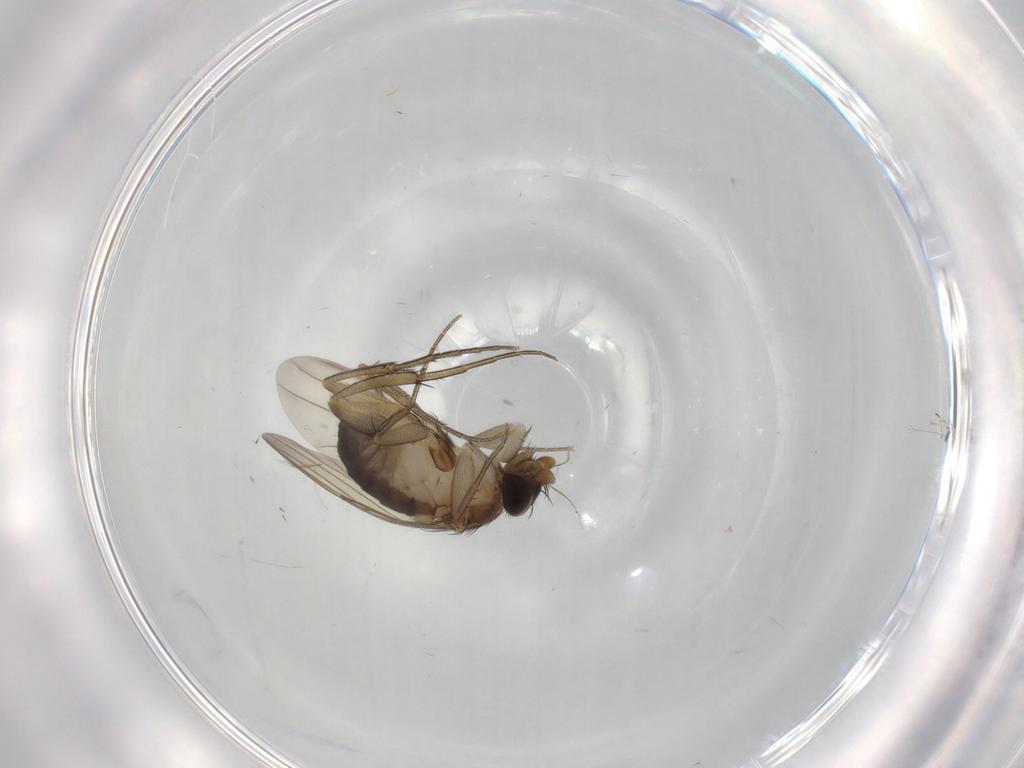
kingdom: Animalia
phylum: Arthropoda
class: Insecta
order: Diptera
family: Phoridae
